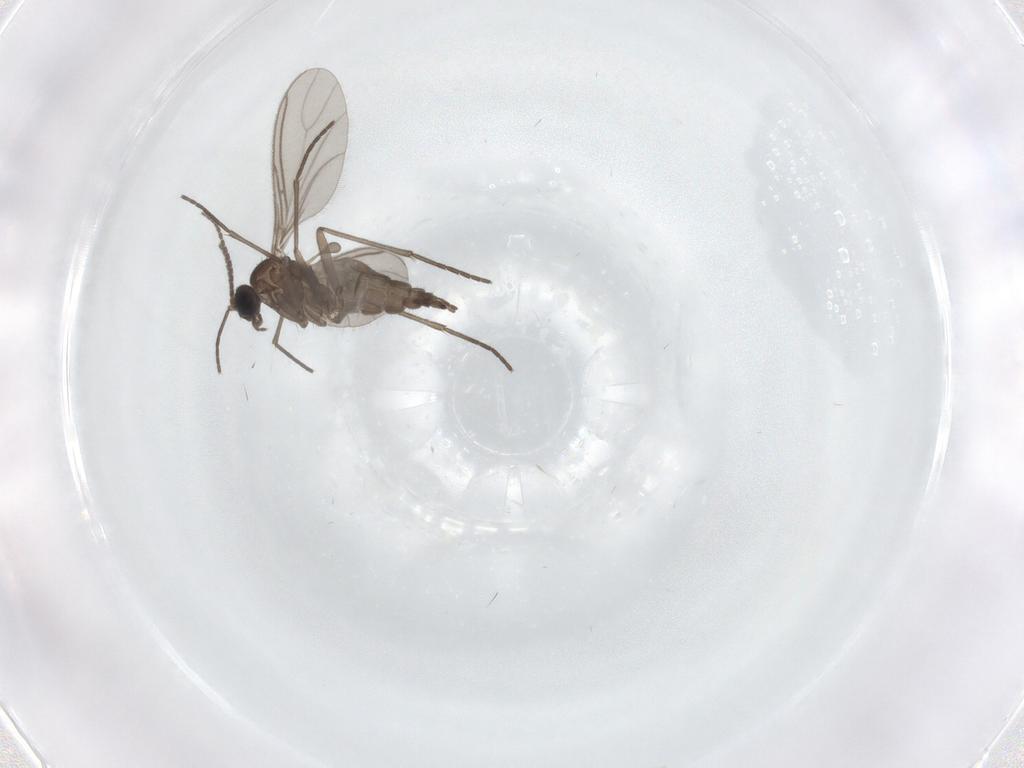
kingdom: Animalia
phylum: Arthropoda
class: Insecta
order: Diptera
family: Sciaridae
